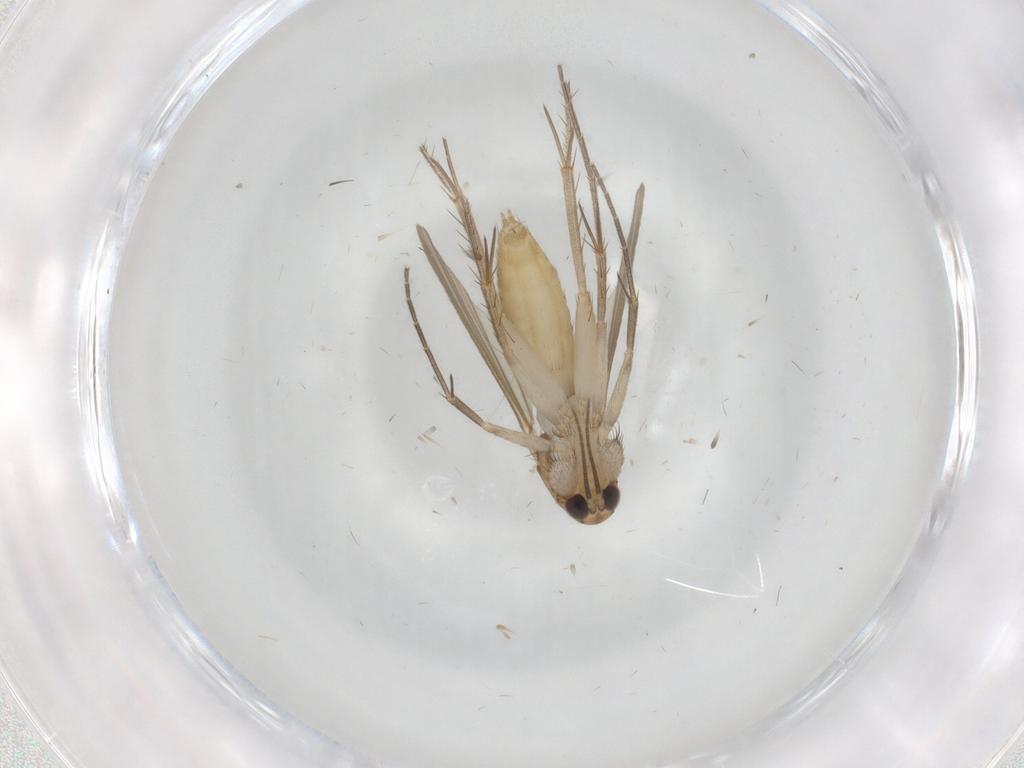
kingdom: Animalia
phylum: Arthropoda
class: Insecta
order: Diptera
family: Mycetophilidae
